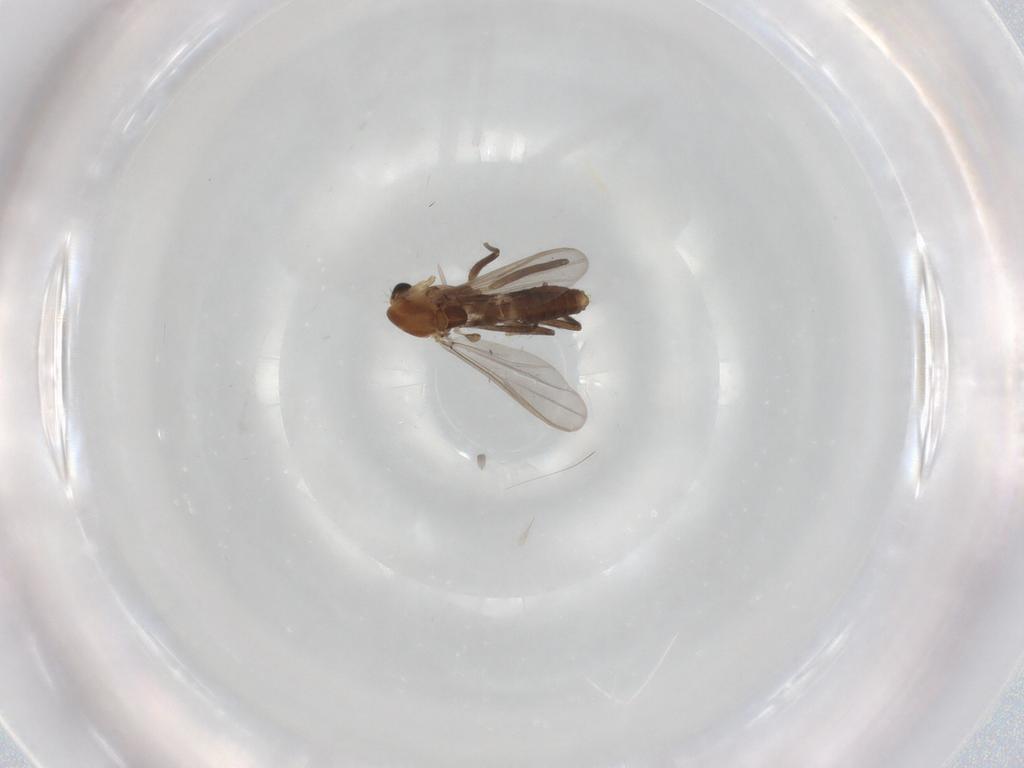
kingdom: Animalia
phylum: Arthropoda
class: Insecta
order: Diptera
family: Chironomidae
